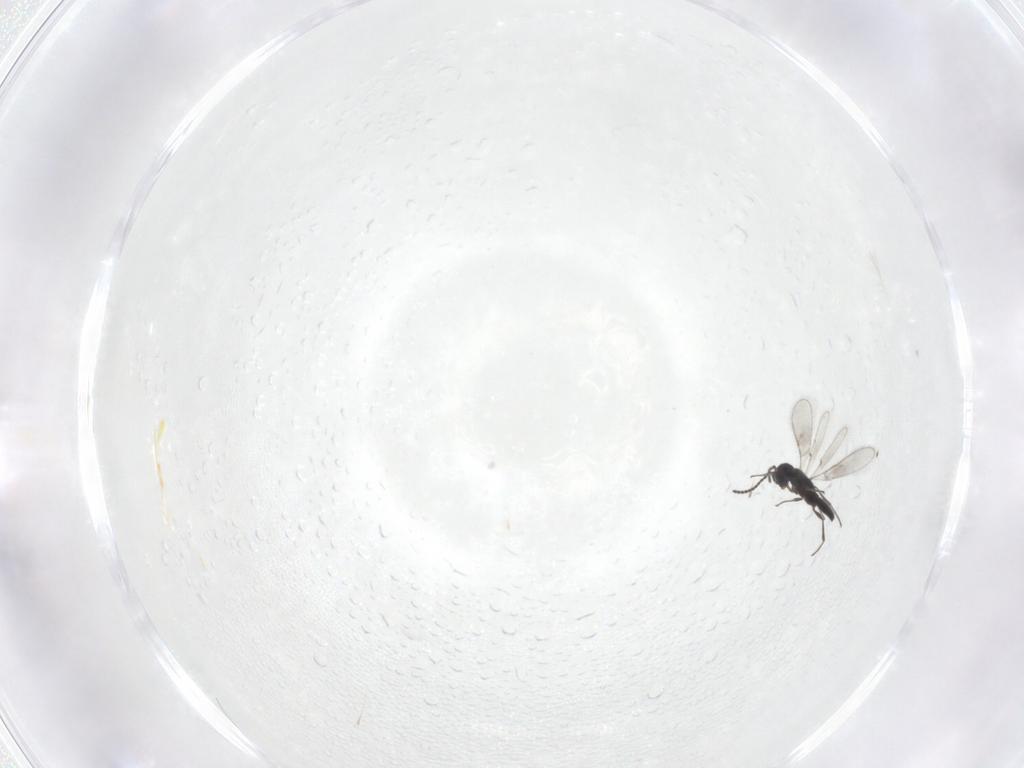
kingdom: Animalia
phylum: Arthropoda
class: Insecta
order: Hymenoptera
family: Scelionidae
